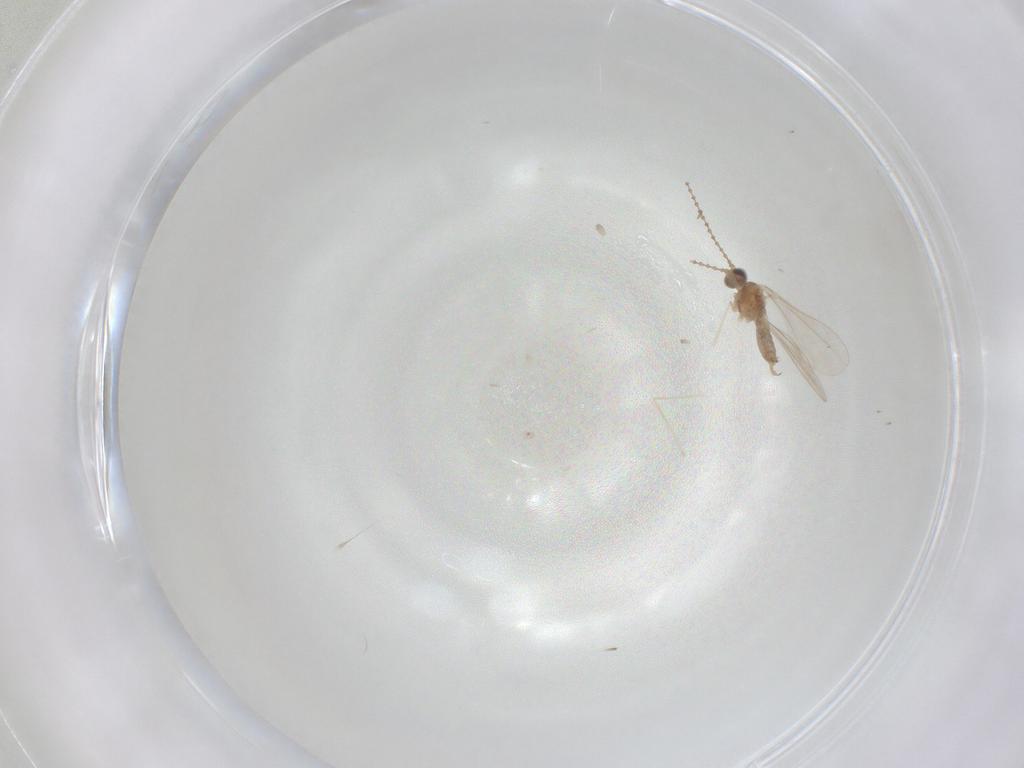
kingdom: Animalia
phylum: Arthropoda
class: Insecta
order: Diptera
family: Cecidomyiidae
